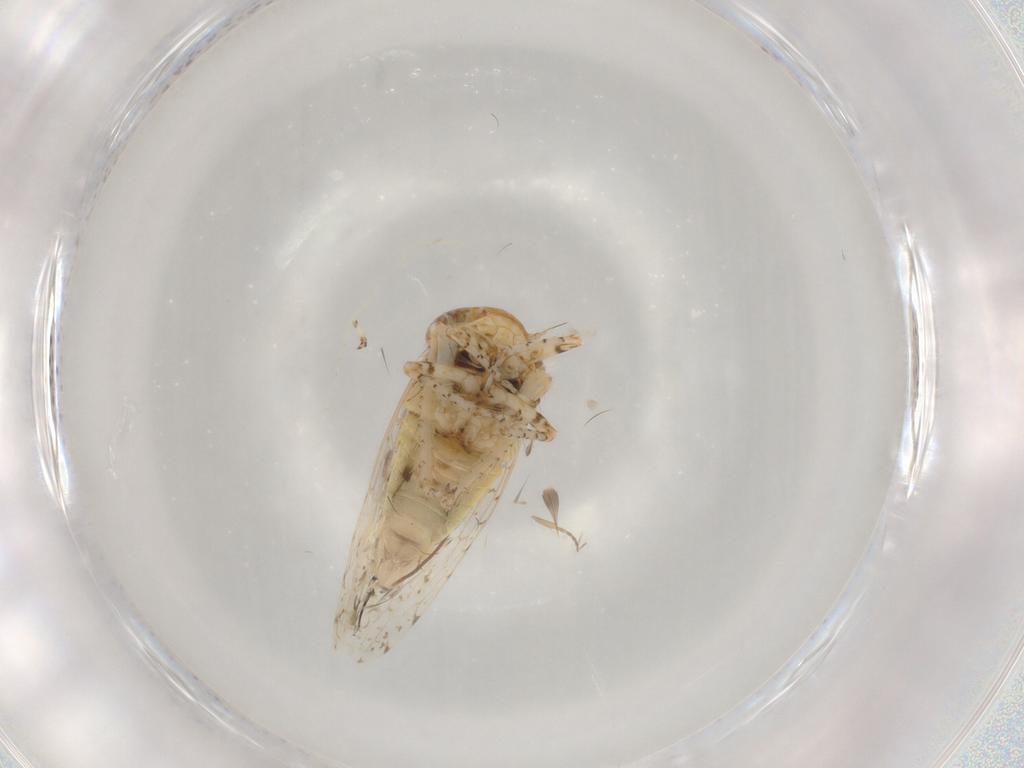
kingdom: Animalia
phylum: Arthropoda
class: Insecta
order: Hemiptera
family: Cicadellidae
